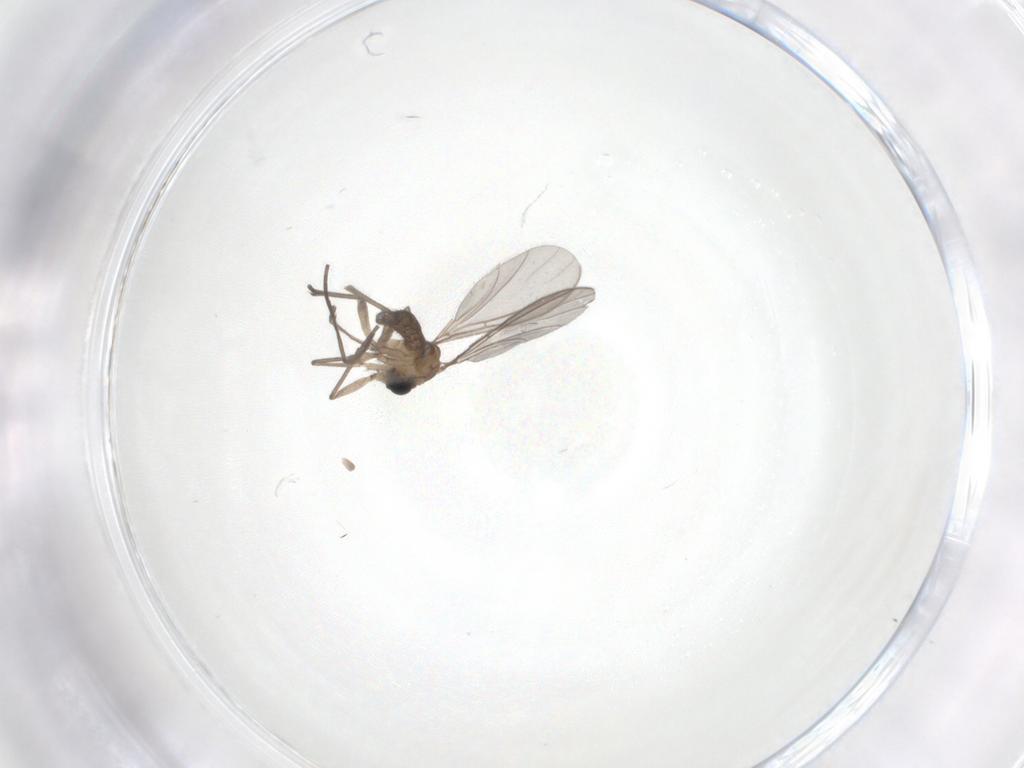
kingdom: Animalia
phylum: Arthropoda
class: Insecta
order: Diptera
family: Sciaridae
